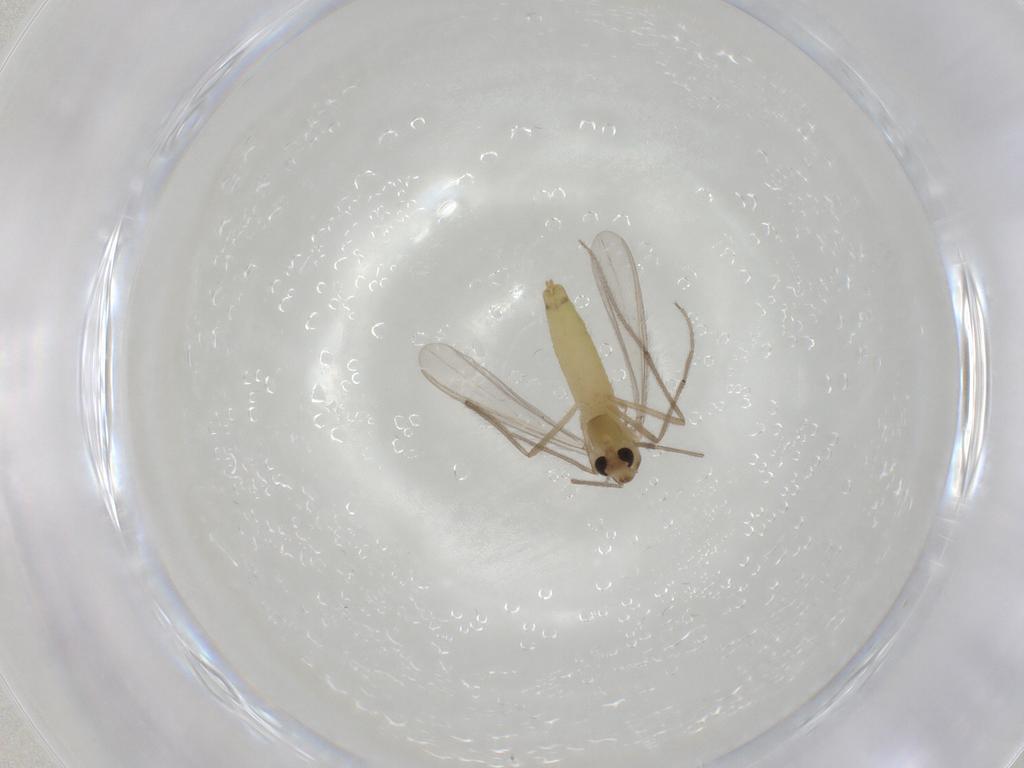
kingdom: Animalia
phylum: Arthropoda
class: Insecta
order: Diptera
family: Chironomidae
